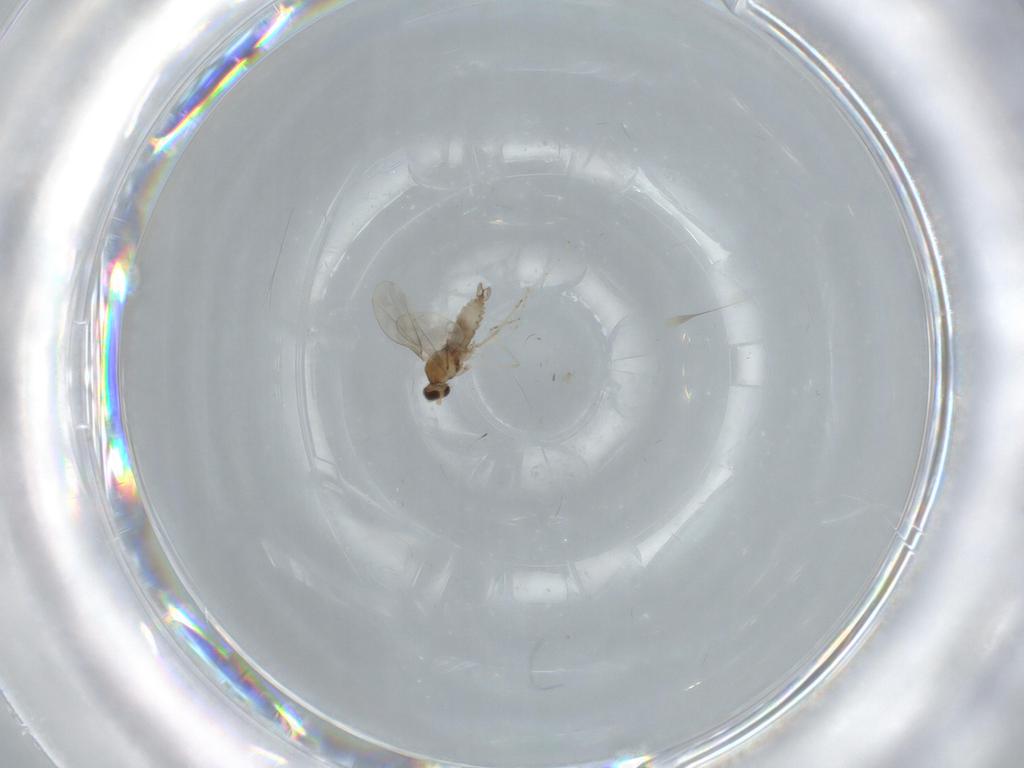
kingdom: Animalia
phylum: Arthropoda
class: Insecta
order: Diptera
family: Cecidomyiidae
